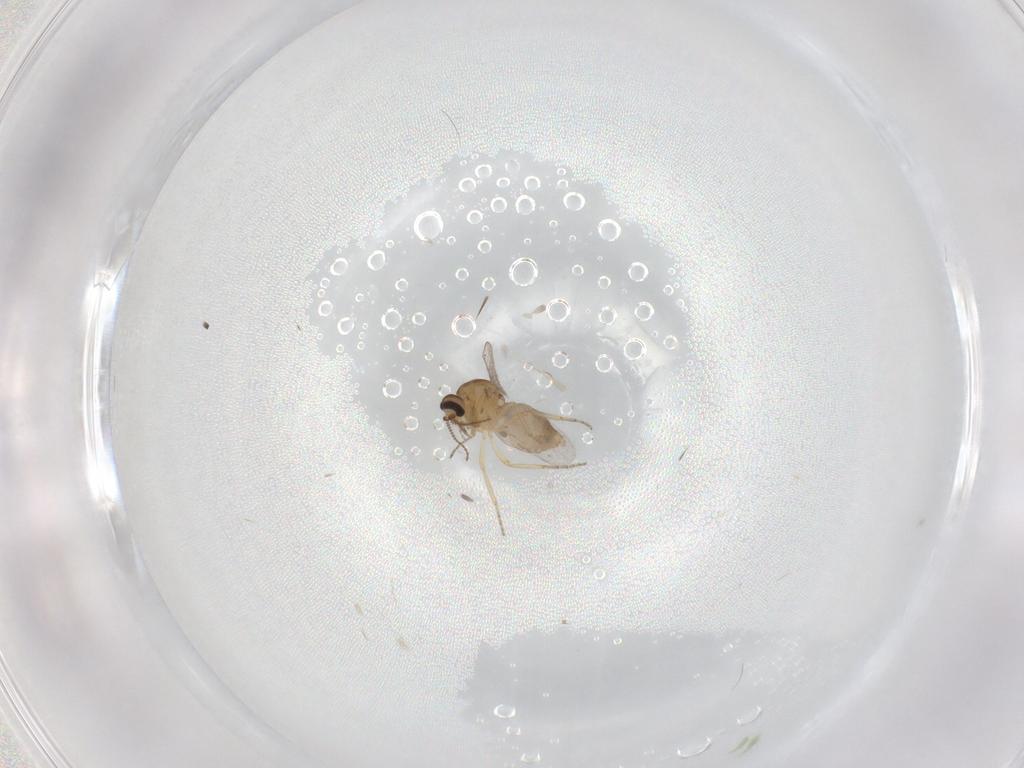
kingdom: Animalia
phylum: Arthropoda
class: Insecta
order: Diptera
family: Ceratopogonidae
